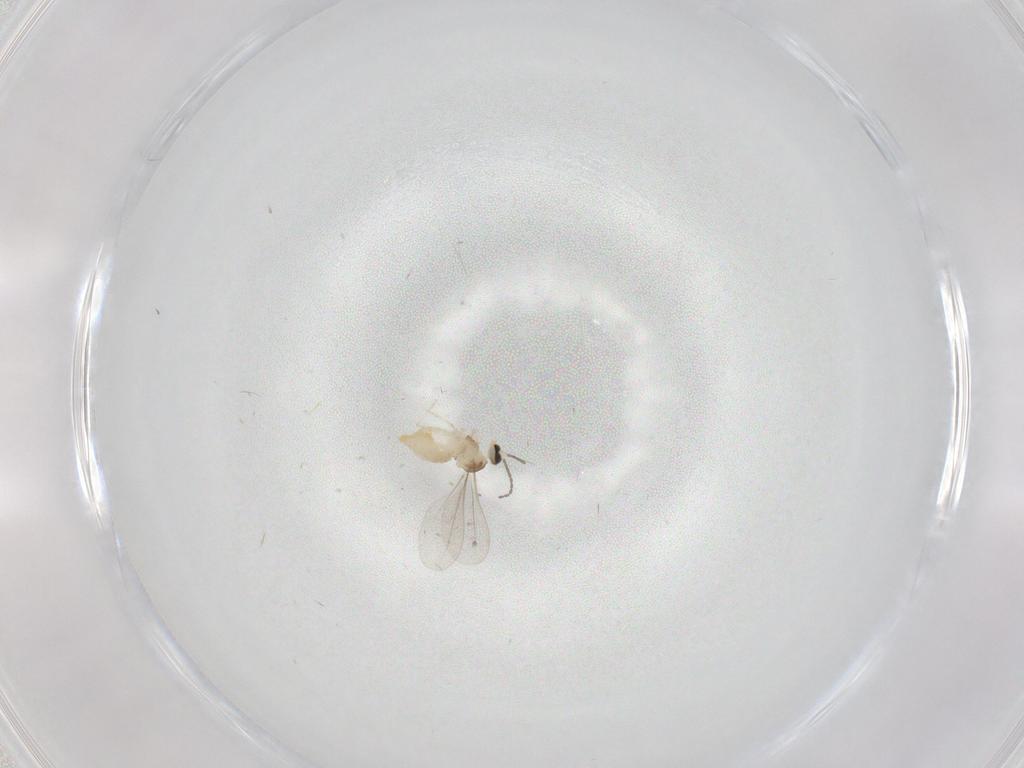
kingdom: Animalia
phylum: Arthropoda
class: Insecta
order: Diptera
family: Cecidomyiidae
